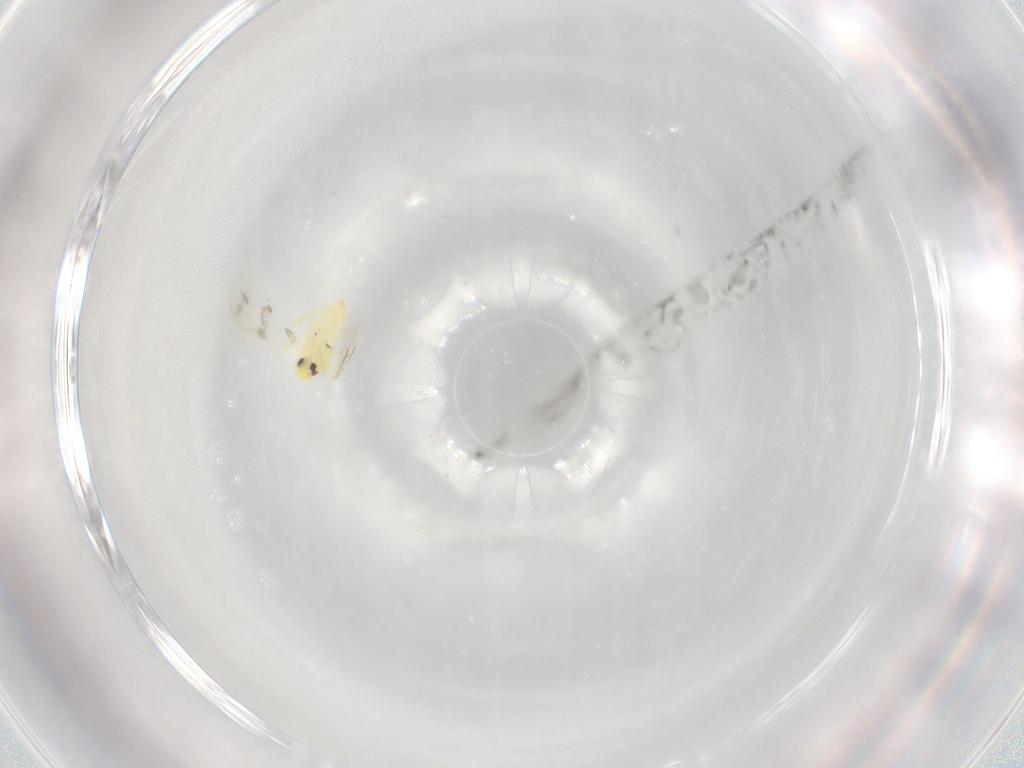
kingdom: Animalia
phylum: Arthropoda
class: Insecta
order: Hemiptera
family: Aleyrodidae
